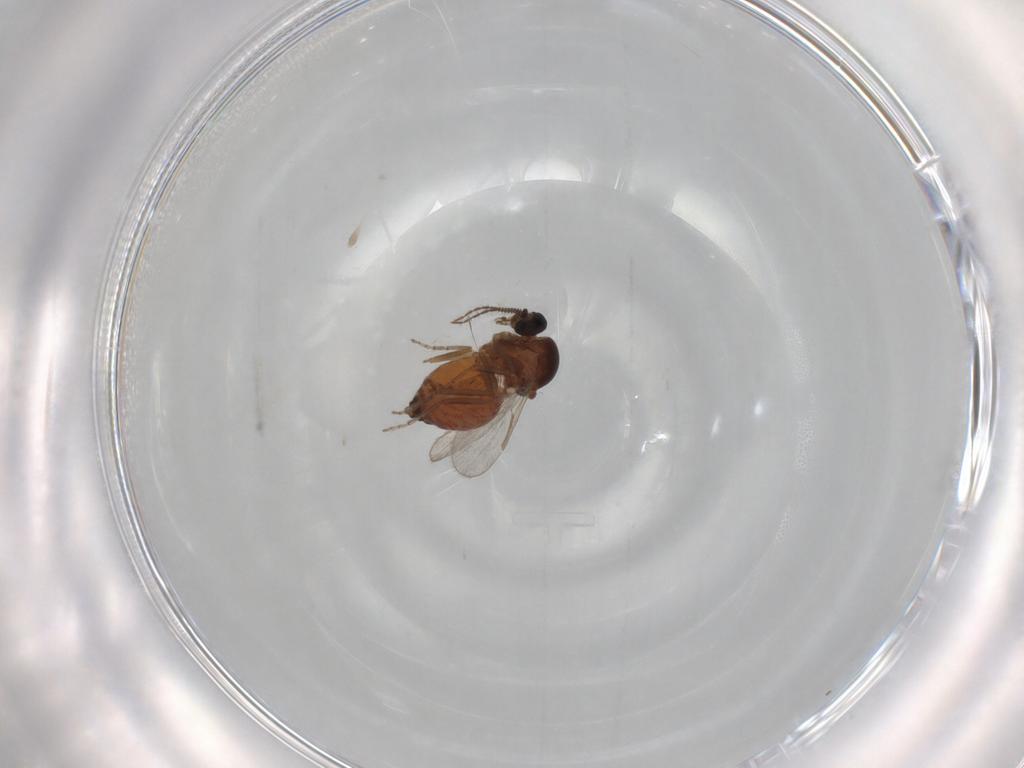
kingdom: Animalia
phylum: Arthropoda
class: Insecta
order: Diptera
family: Ceratopogonidae
